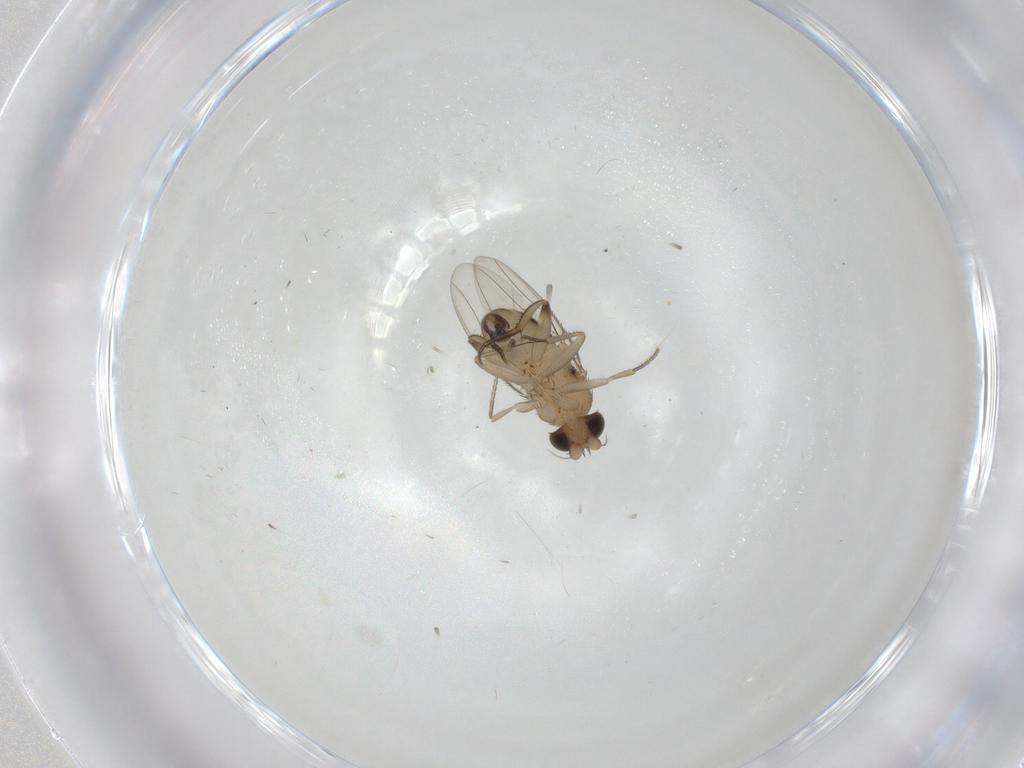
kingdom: Animalia
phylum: Arthropoda
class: Insecta
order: Diptera
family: Phoridae
